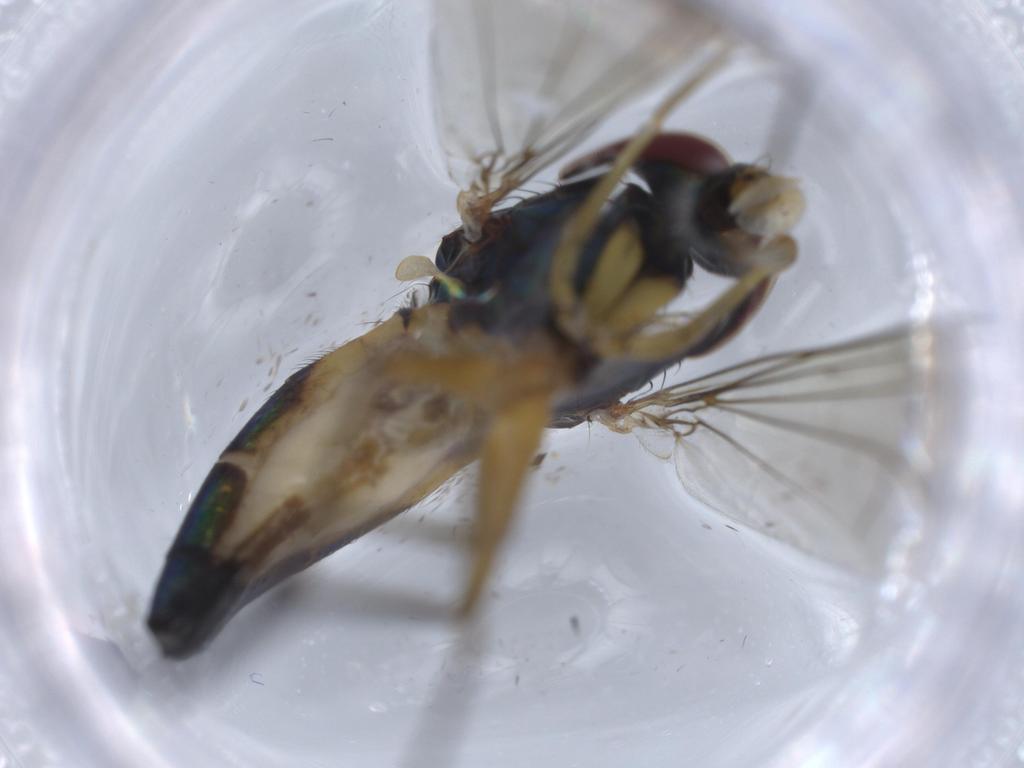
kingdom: Animalia
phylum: Arthropoda
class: Insecta
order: Diptera
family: Dolichopodidae
